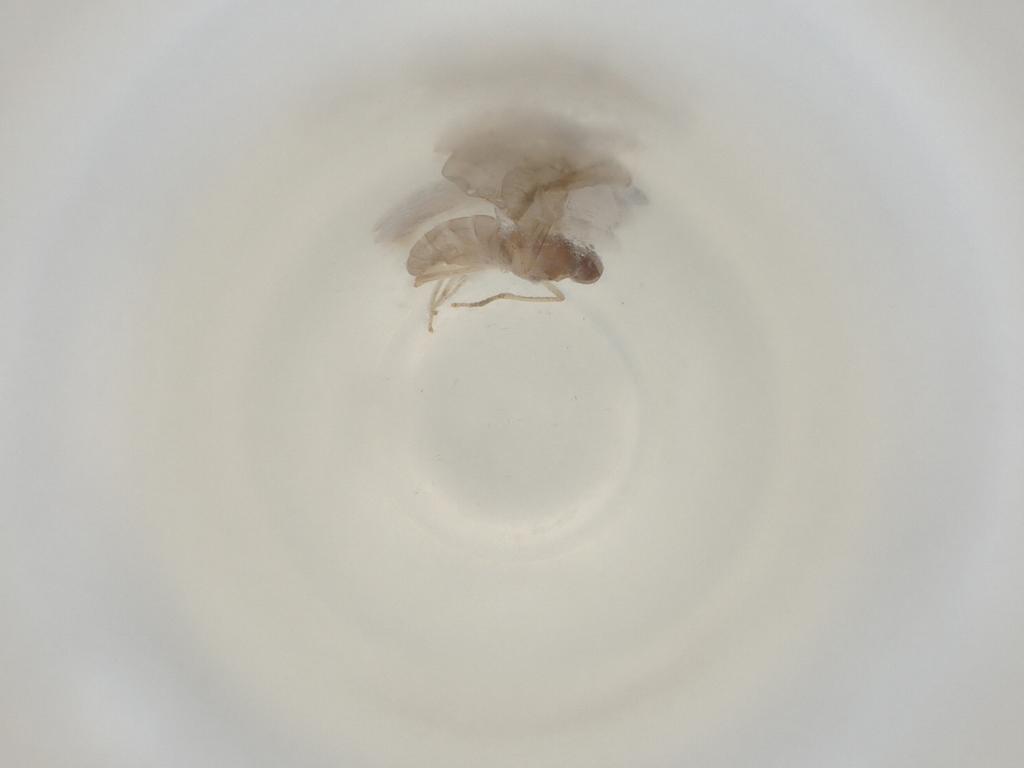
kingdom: Animalia
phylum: Arthropoda
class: Insecta
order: Diptera
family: Cecidomyiidae
